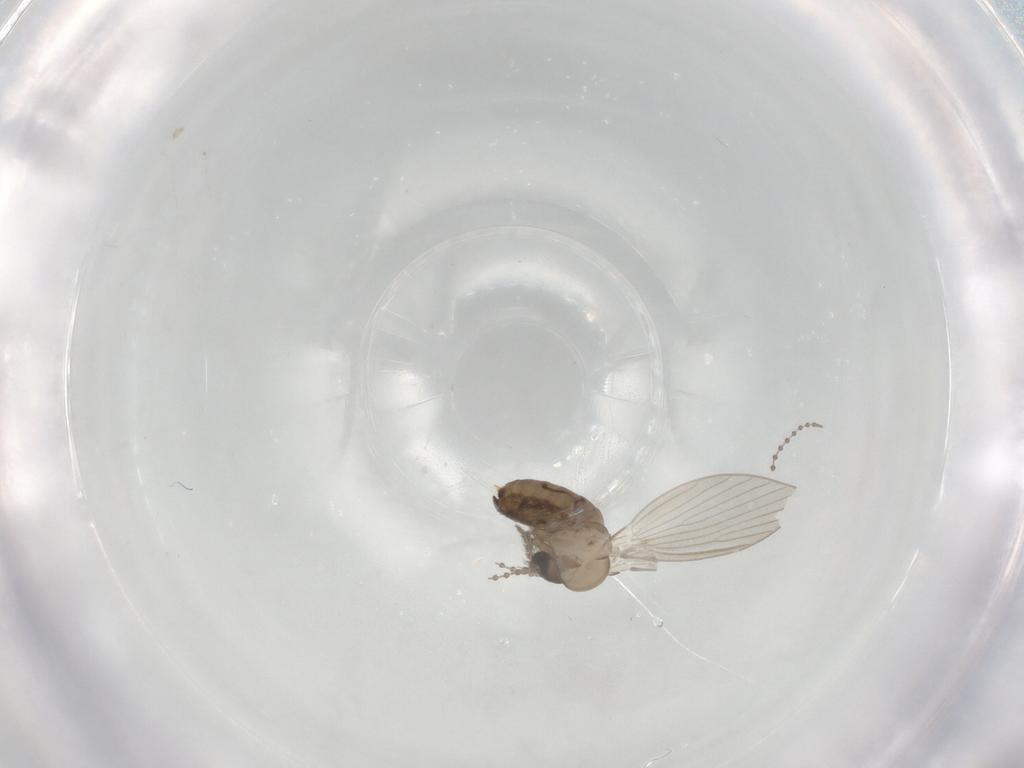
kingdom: Animalia
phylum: Arthropoda
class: Insecta
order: Diptera
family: Psychodidae
